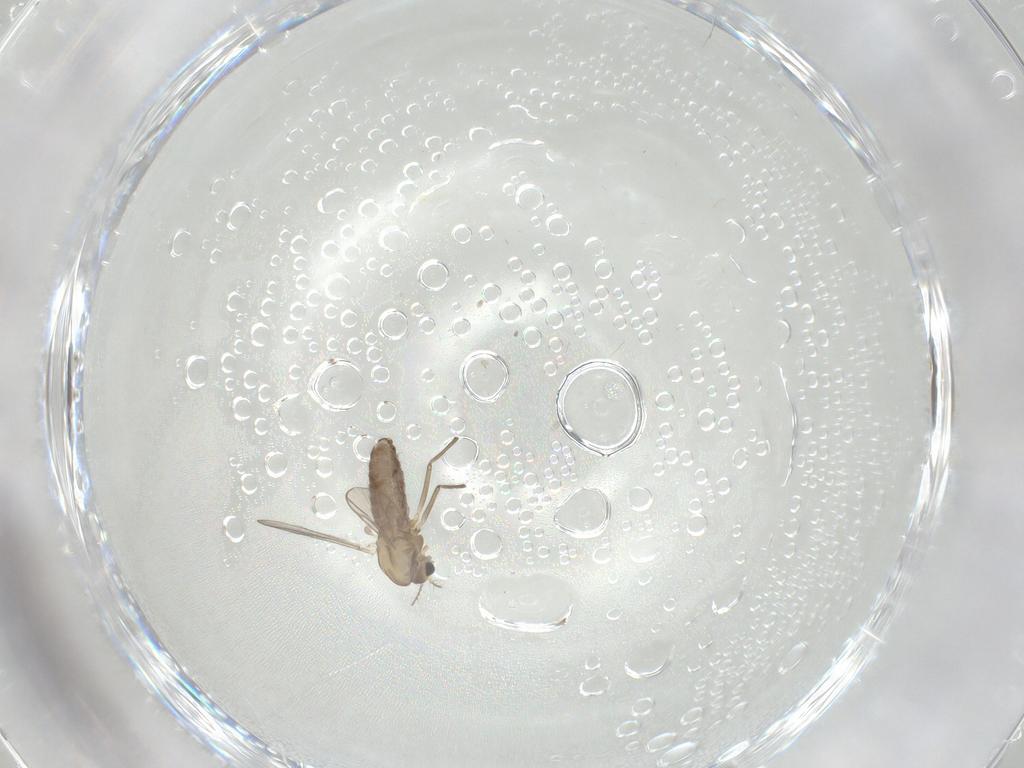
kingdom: Animalia
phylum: Arthropoda
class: Insecta
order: Diptera
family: Chironomidae
